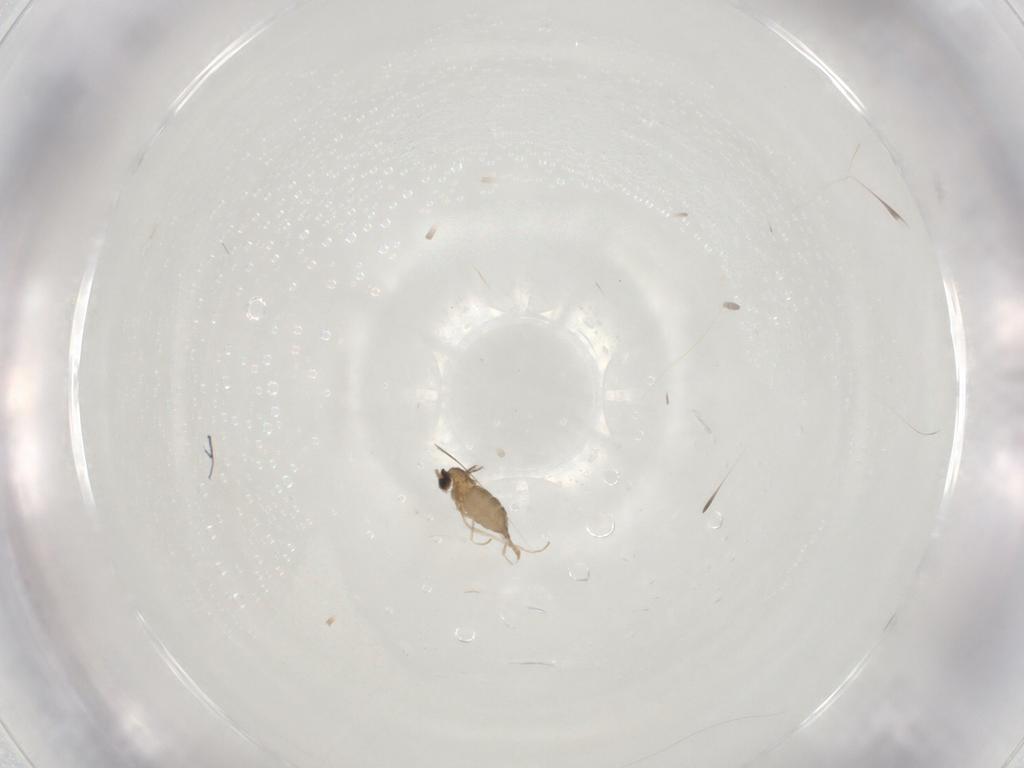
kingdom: Animalia
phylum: Arthropoda
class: Insecta
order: Diptera
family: Cecidomyiidae
